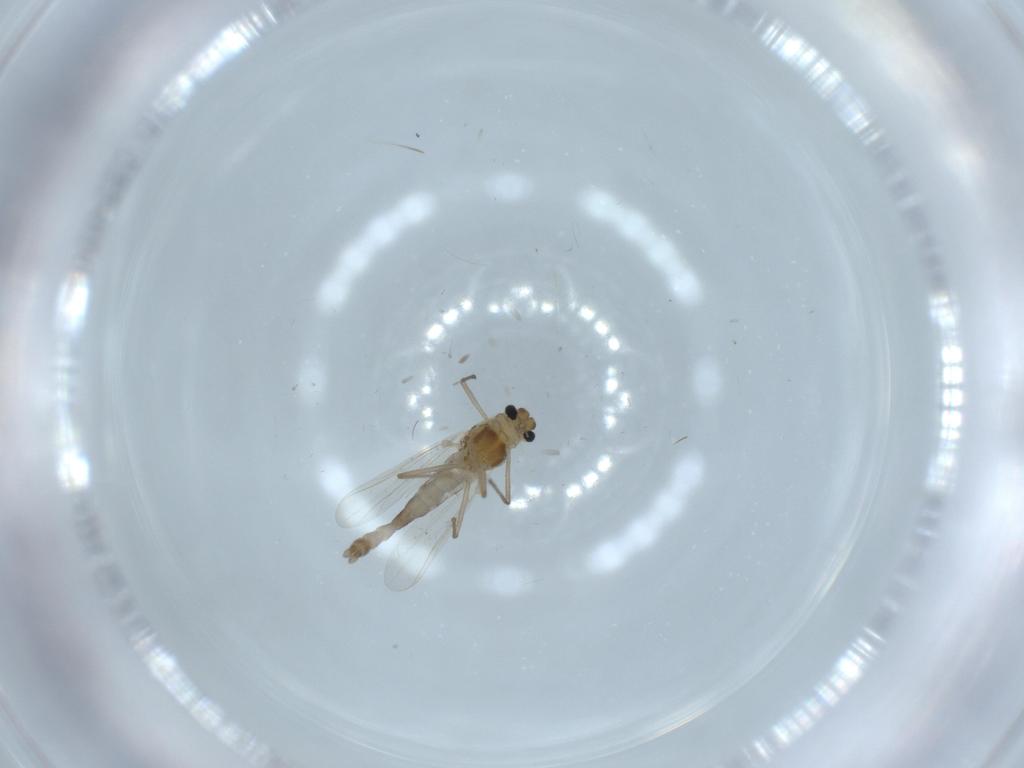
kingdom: Animalia
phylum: Arthropoda
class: Insecta
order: Diptera
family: Chironomidae
